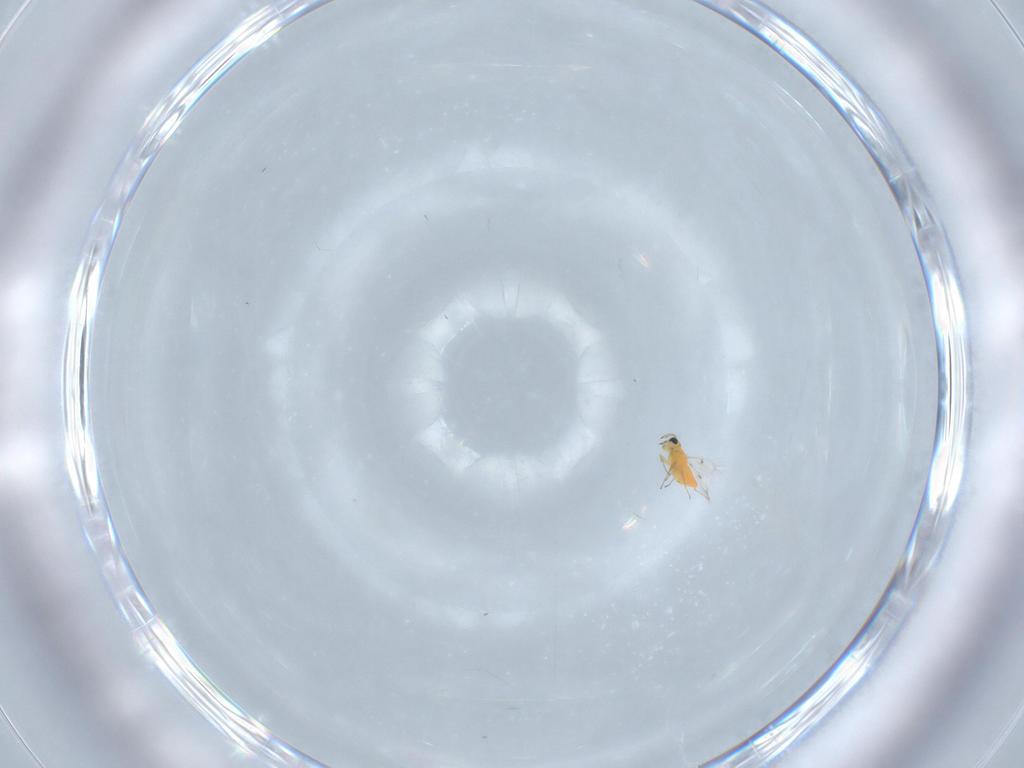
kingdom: Animalia
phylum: Arthropoda
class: Insecta
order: Hymenoptera
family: Trichogrammatidae
